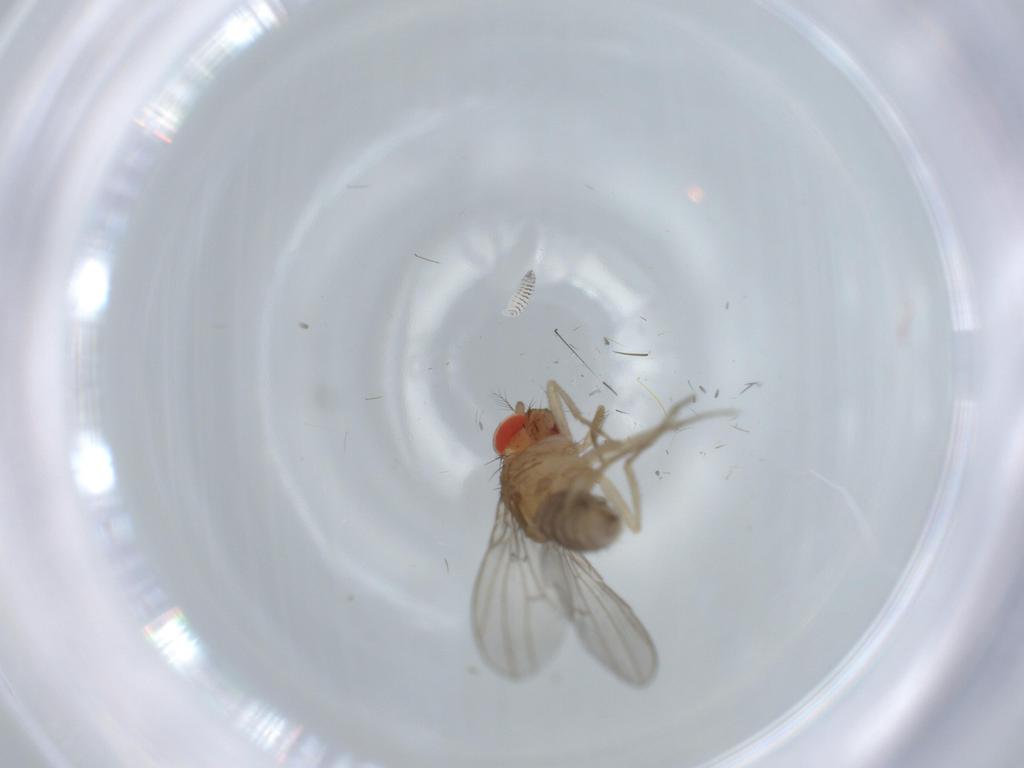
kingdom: Animalia
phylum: Arthropoda
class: Insecta
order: Diptera
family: Drosophilidae
